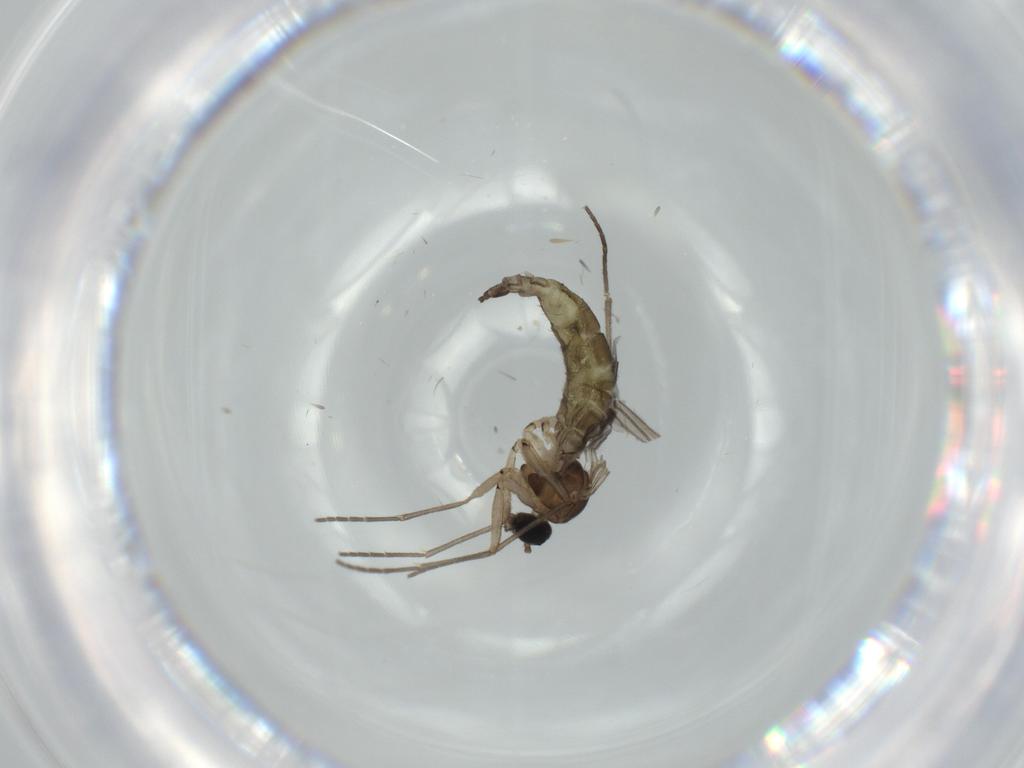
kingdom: Animalia
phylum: Arthropoda
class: Insecta
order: Diptera
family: Sciaridae
